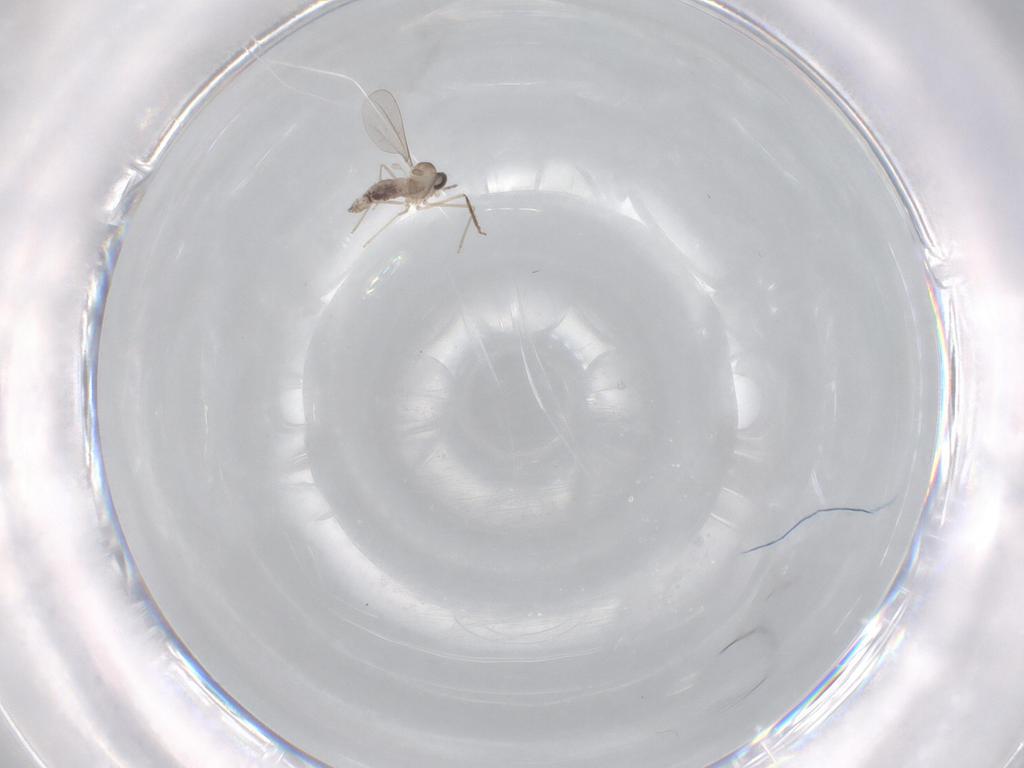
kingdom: Animalia
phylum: Arthropoda
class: Insecta
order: Diptera
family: Cecidomyiidae
